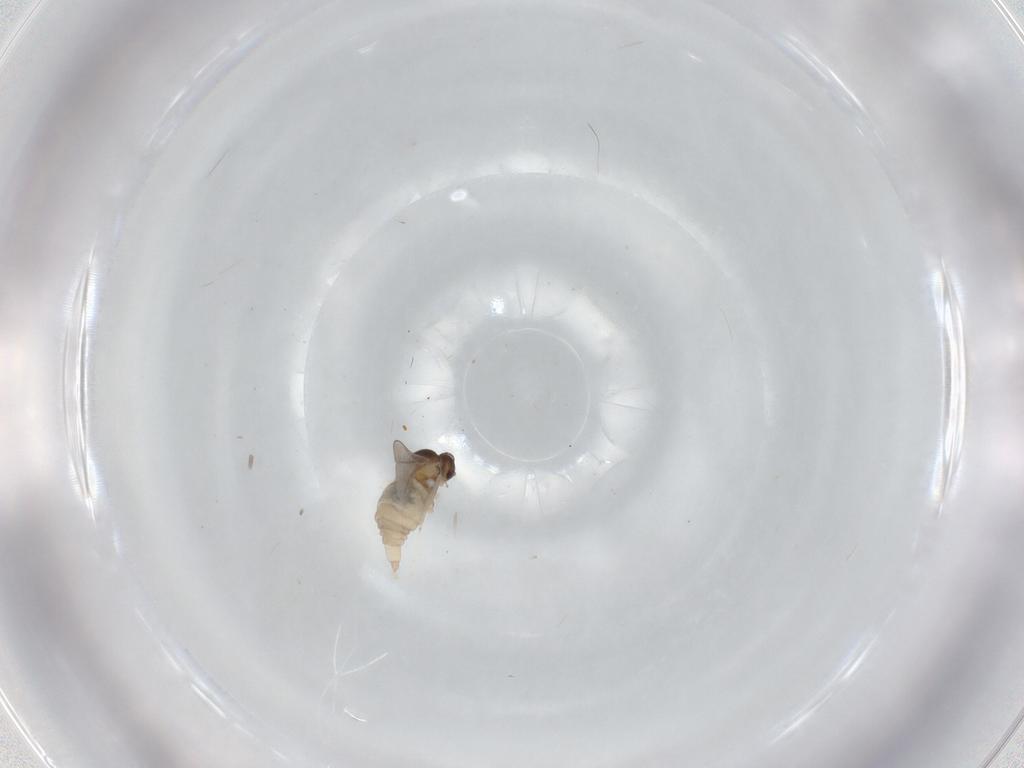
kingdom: Animalia
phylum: Arthropoda
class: Insecta
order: Diptera
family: Cecidomyiidae
